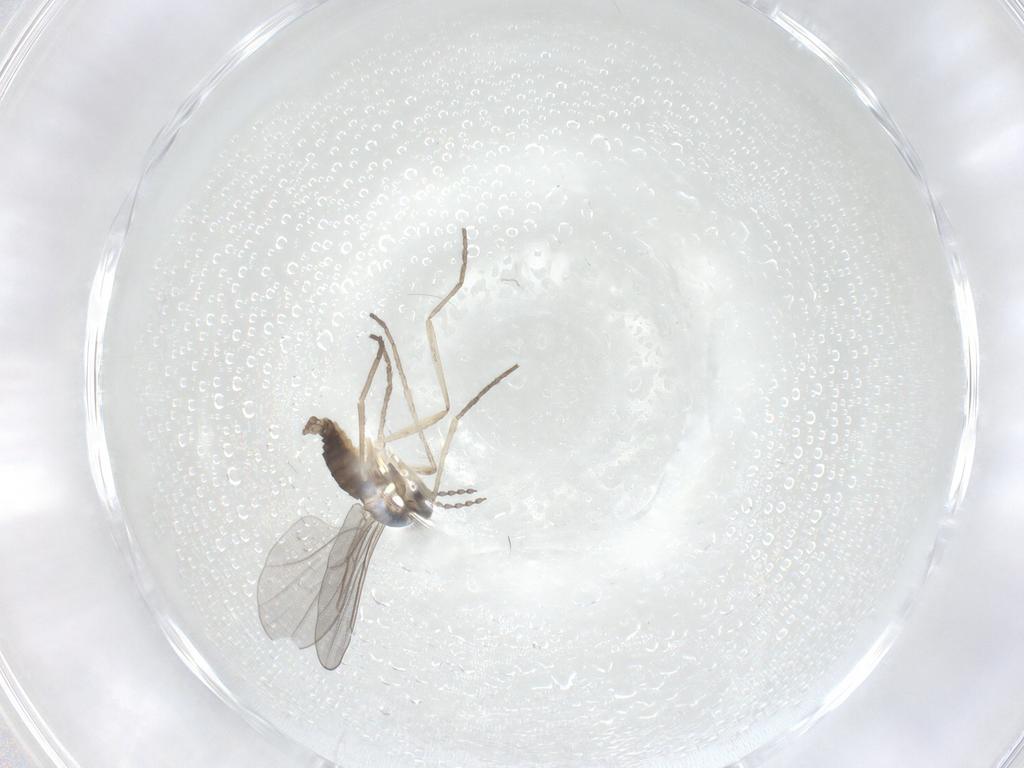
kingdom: Animalia
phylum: Arthropoda
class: Insecta
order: Diptera
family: Cecidomyiidae
